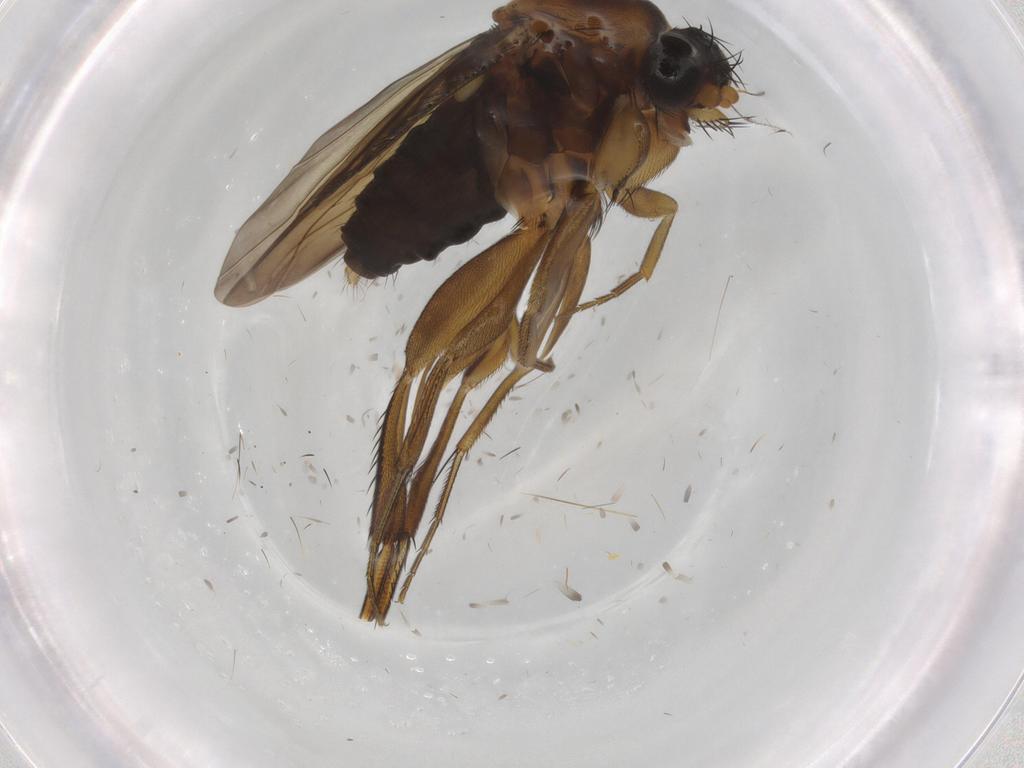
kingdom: Animalia
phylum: Arthropoda
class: Insecta
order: Diptera
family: Phoridae
